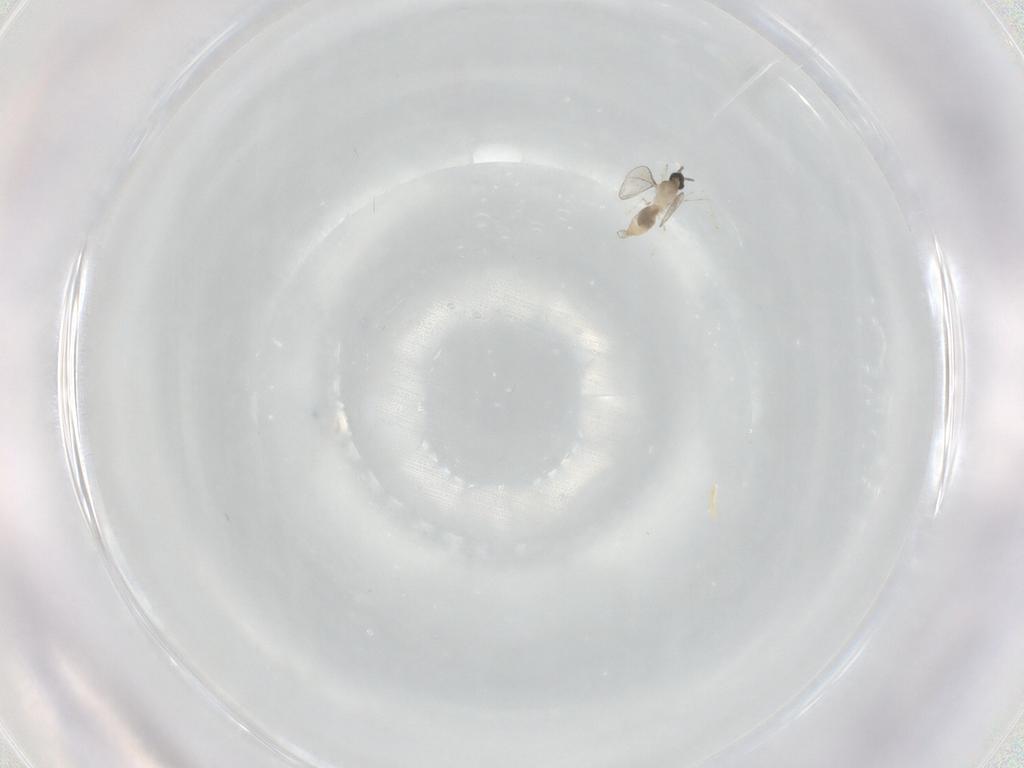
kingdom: Animalia
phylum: Arthropoda
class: Insecta
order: Diptera
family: Cecidomyiidae
